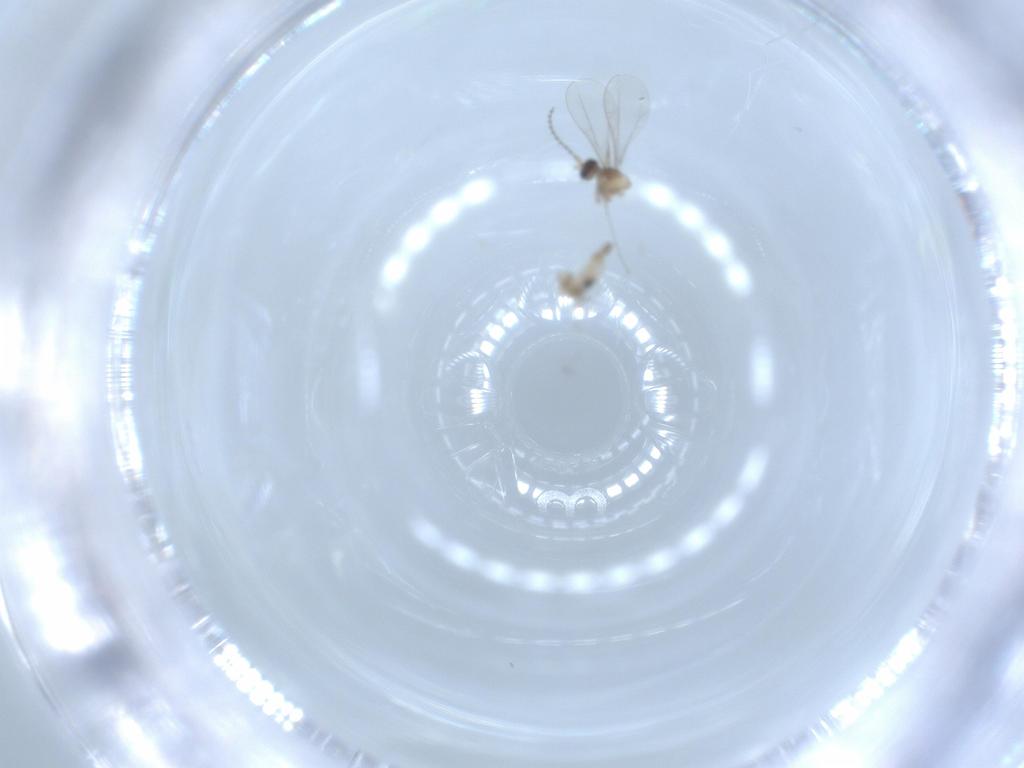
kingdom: Animalia
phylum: Arthropoda
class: Insecta
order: Diptera
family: Cecidomyiidae
